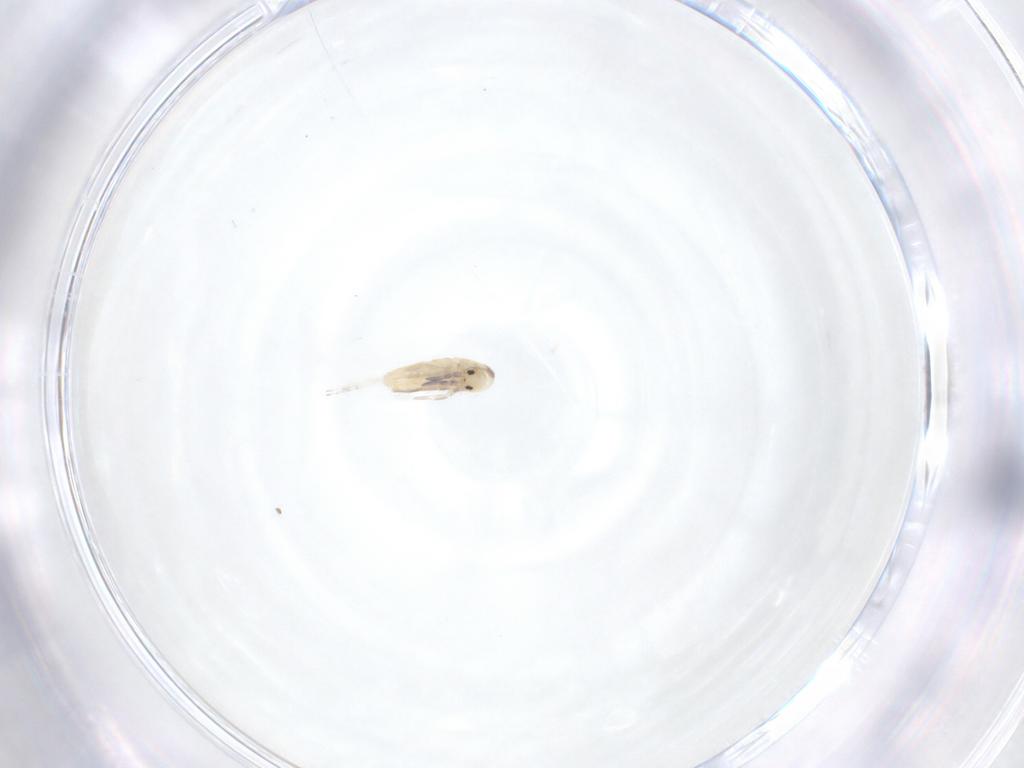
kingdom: Animalia
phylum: Arthropoda
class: Collembola
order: Entomobryomorpha
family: Entomobryidae
